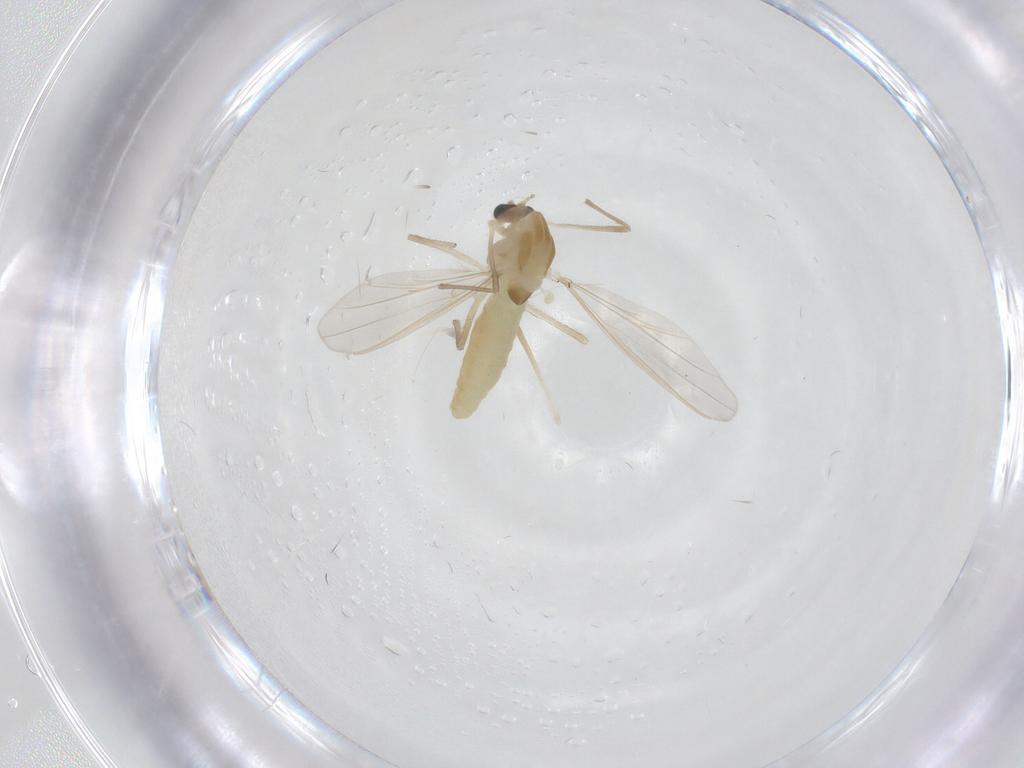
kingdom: Animalia
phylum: Arthropoda
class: Insecta
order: Diptera
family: Chironomidae
